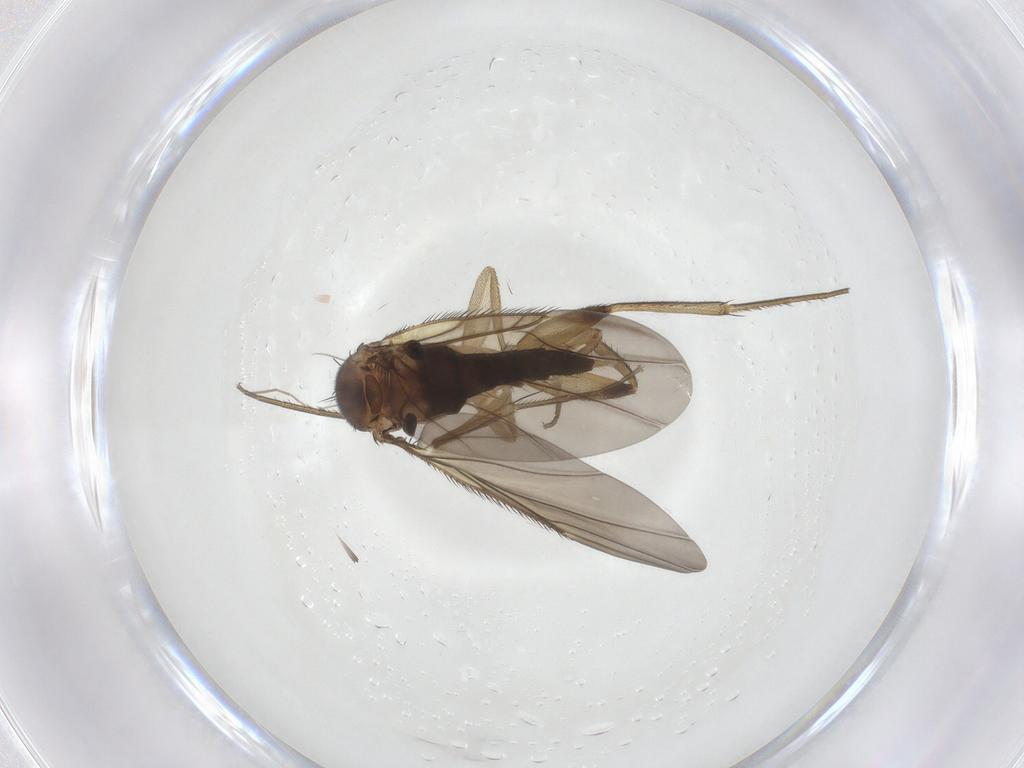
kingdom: Animalia
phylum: Arthropoda
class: Insecta
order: Diptera
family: Phoridae
